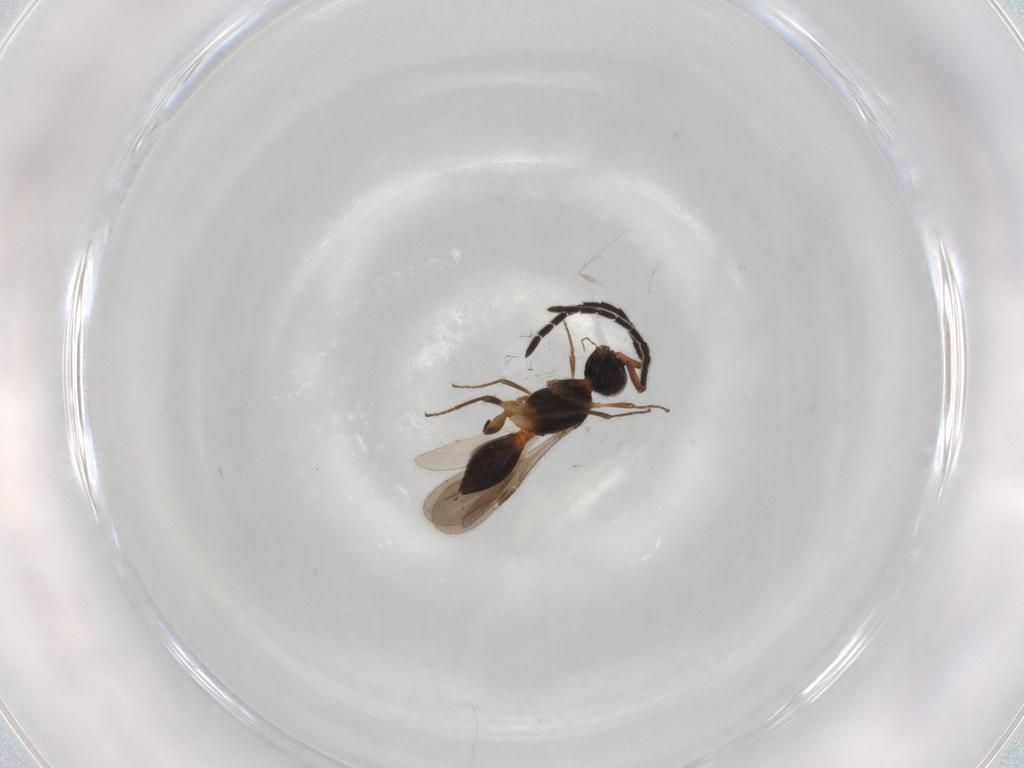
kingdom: Animalia
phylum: Arthropoda
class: Insecta
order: Hymenoptera
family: Megaspilidae
